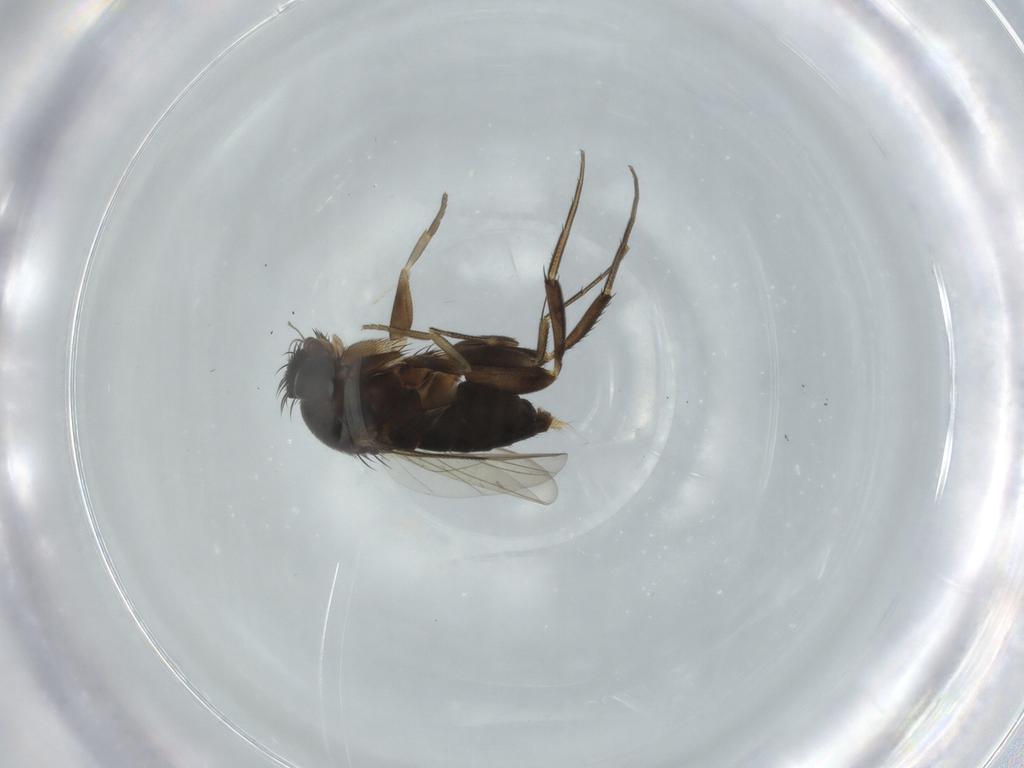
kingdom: Animalia
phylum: Arthropoda
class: Insecta
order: Diptera
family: Phoridae
